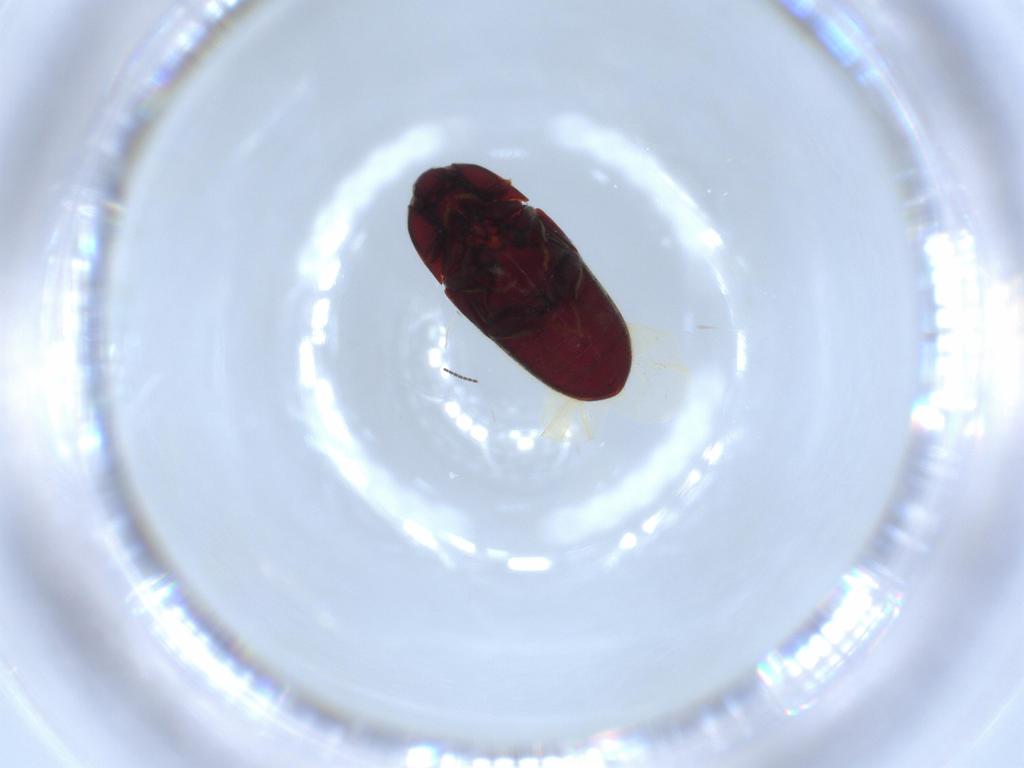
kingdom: Animalia
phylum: Arthropoda
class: Insecta
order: Coleoptera
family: Throscidae
